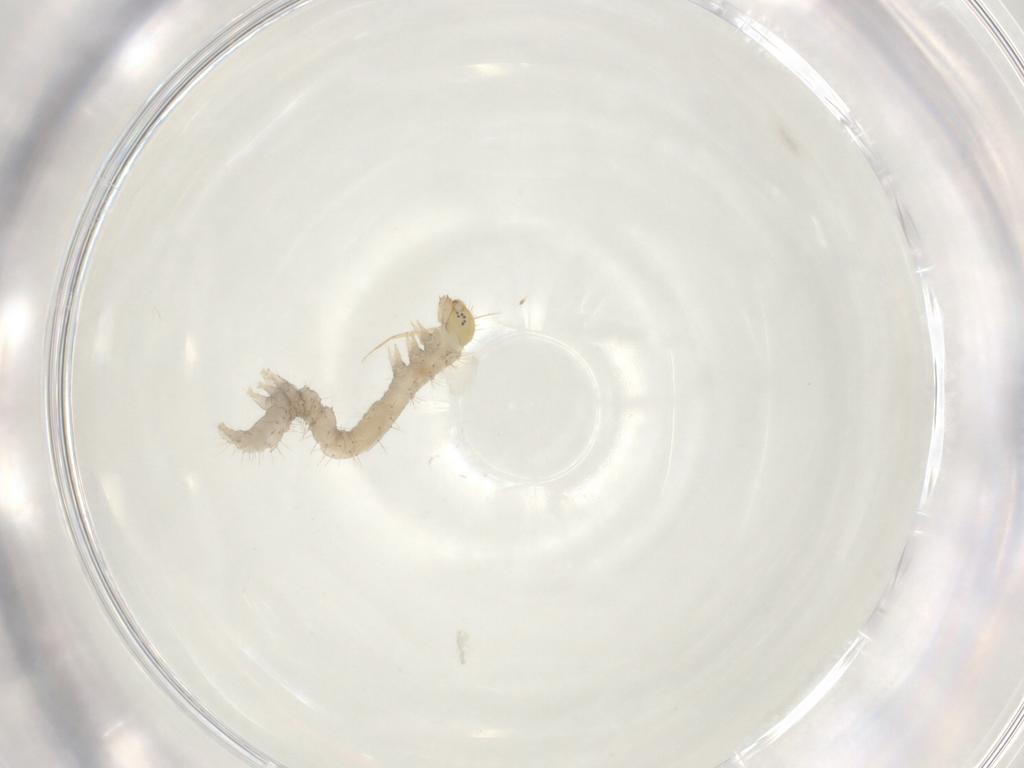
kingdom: Animalia
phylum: Arthropoda
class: Insecta
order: Lepidoptera
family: Erebidae
